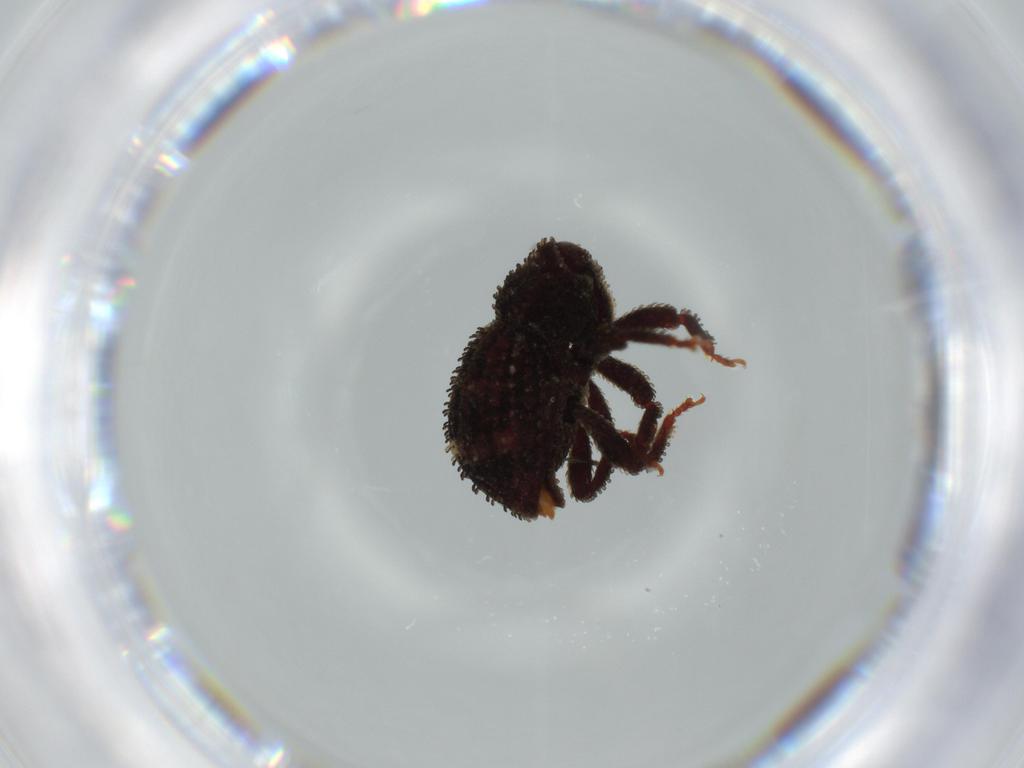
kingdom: Animalia
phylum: Arthropoda
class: Insecta
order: Coleoptera
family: Curculionidae
